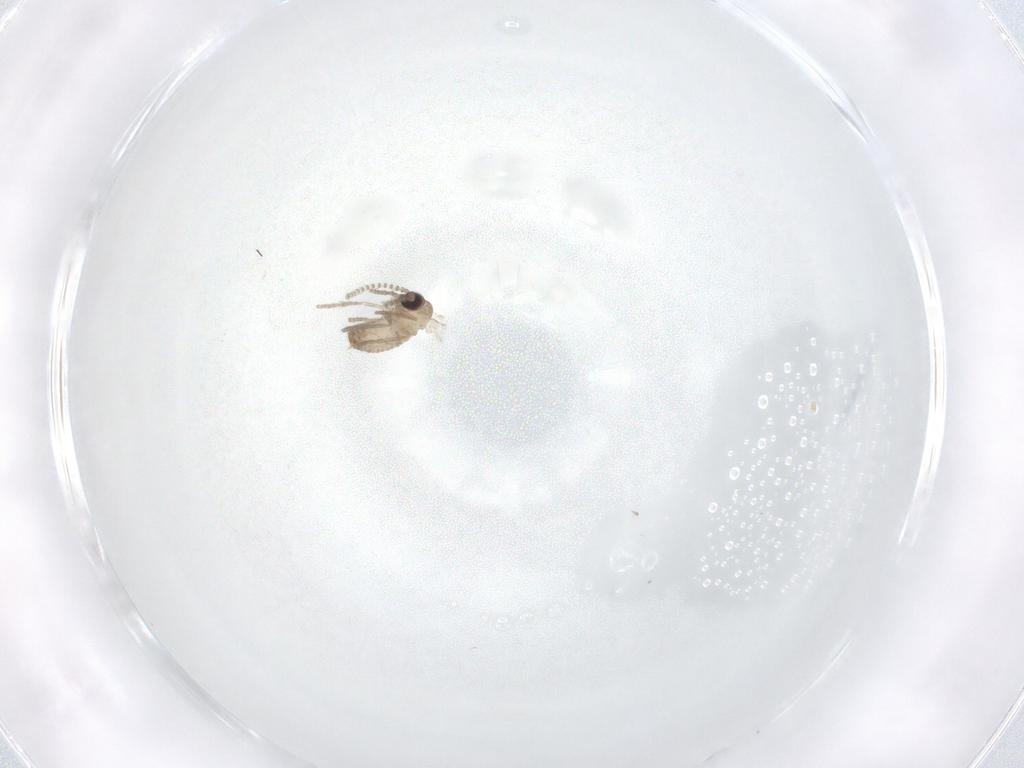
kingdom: Animalia
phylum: Arthropoda
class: Insecta
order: Diptera
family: Psychodidae
